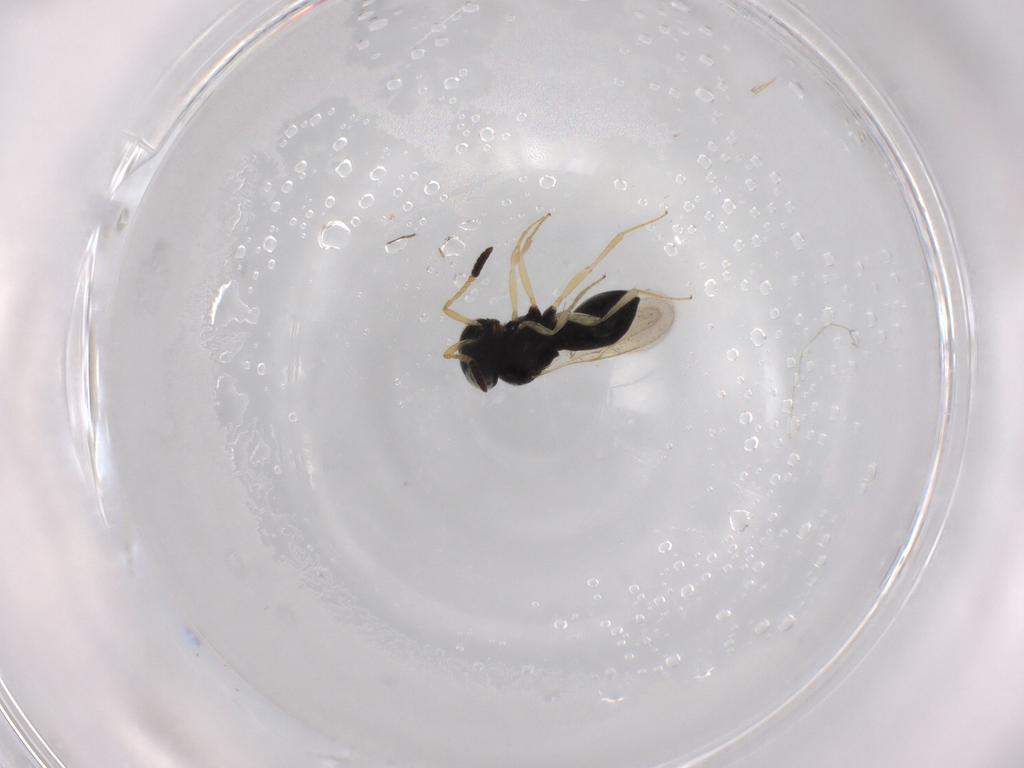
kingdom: Animalia
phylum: Arthropoda
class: Insecta
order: Hymenoptera
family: Scelionidae
